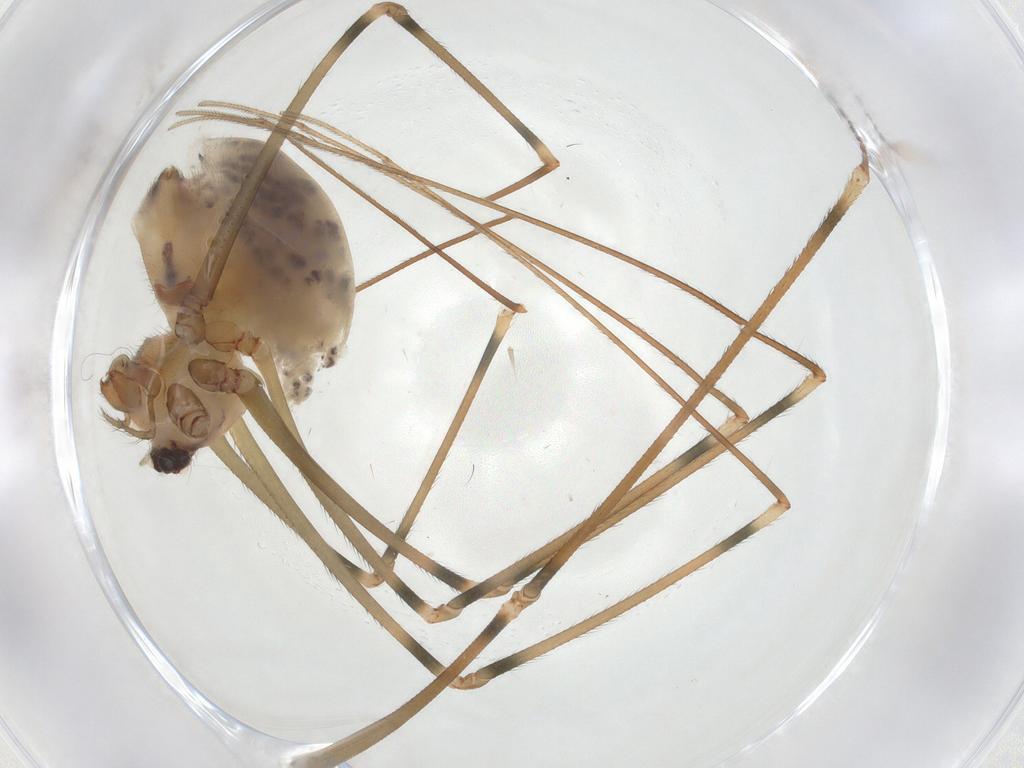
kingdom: Animalia
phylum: Arthropoda
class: Arachnida
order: Araneae
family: Pholcidae
